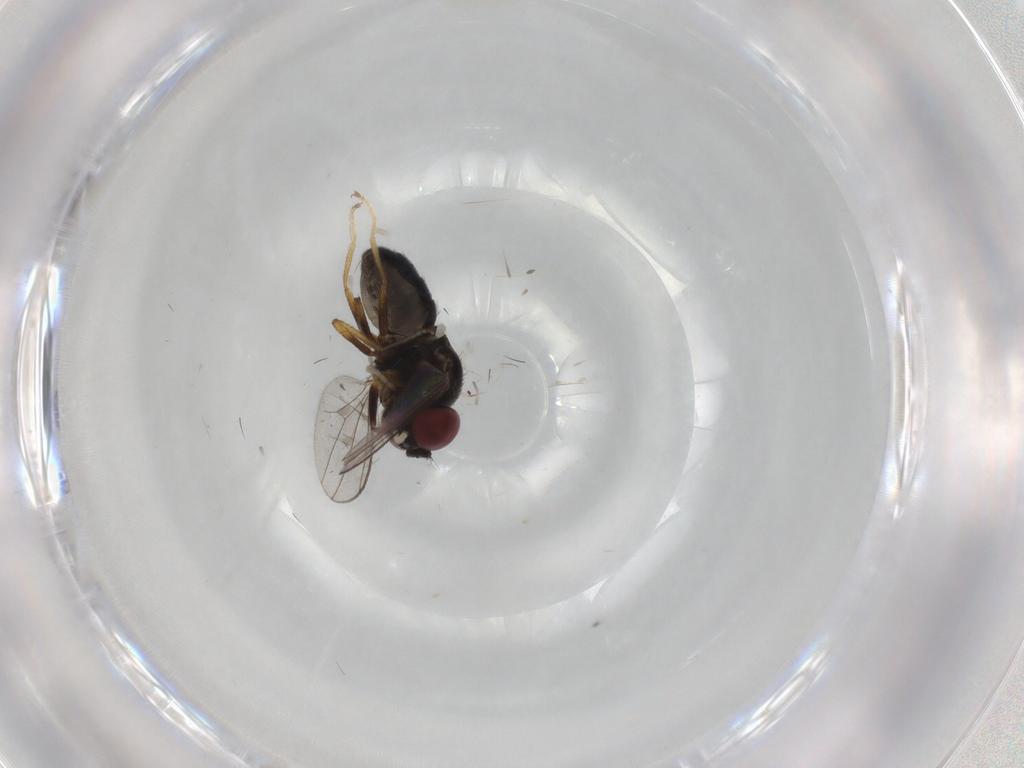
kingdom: Animalia
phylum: Arthropoda
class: Insecta
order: Diptera
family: Ephydridae
